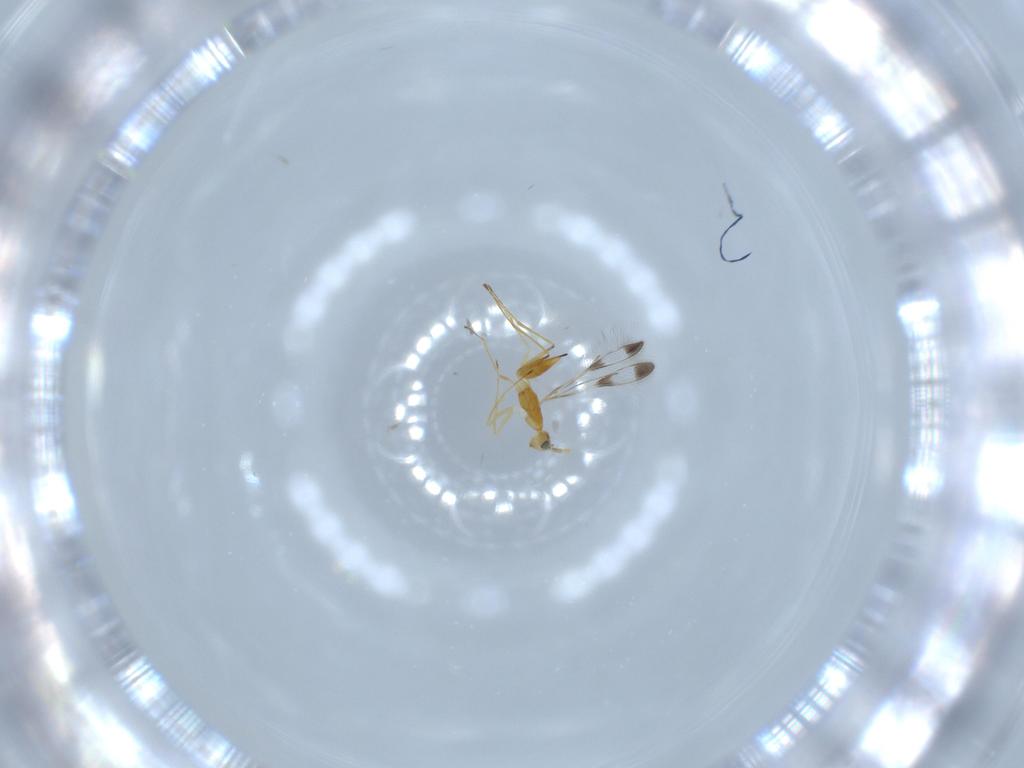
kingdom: Animalia
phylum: Arthropoda
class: Insecta
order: Hymenoptera
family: Mymaridae
